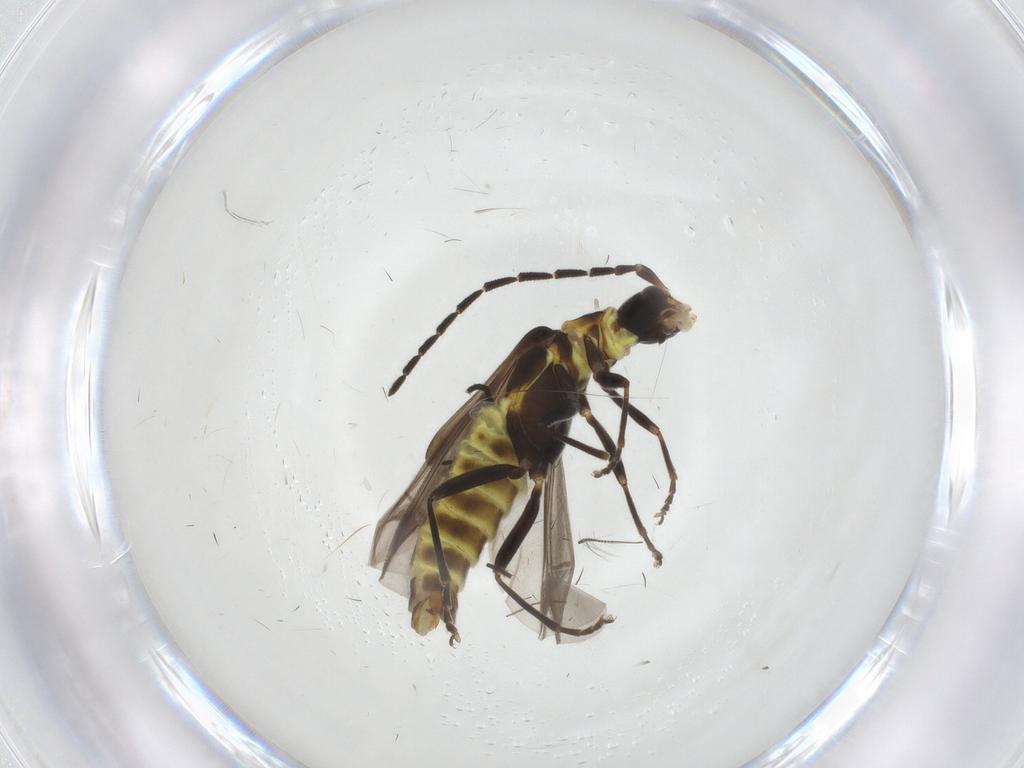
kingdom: Animalia
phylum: Arthropoda
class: Insecta
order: Coleoptera
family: Cantharidae
